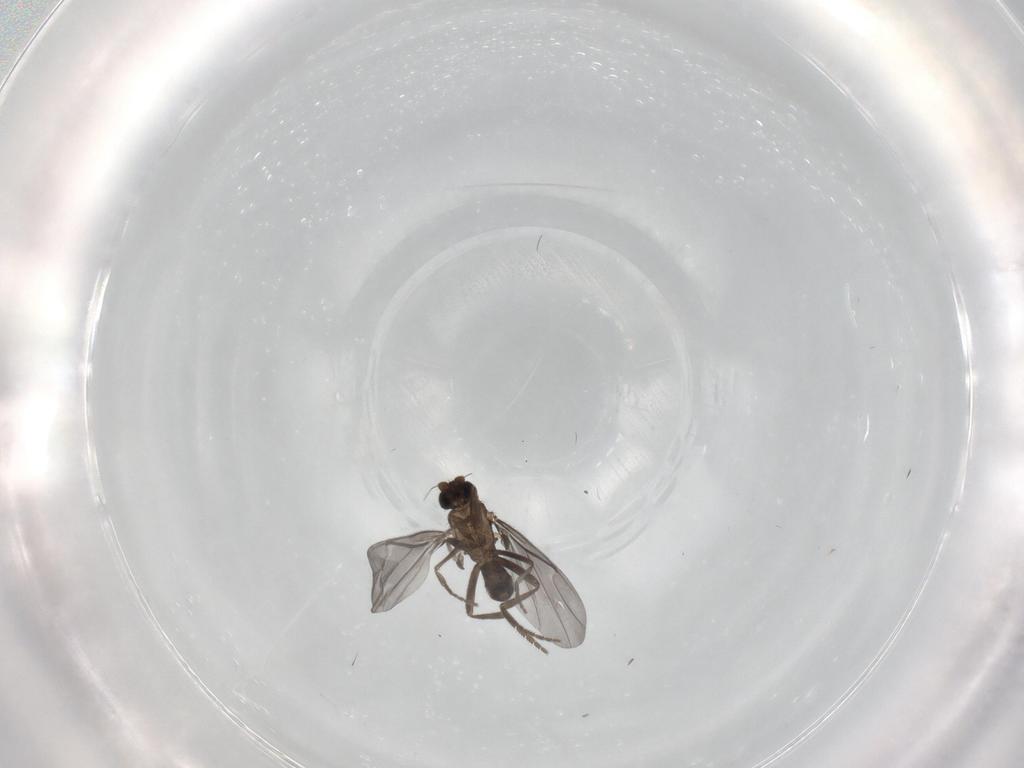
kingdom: Animalia
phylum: Arthropoda
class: Insecta
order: Diptera
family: Phoridae
